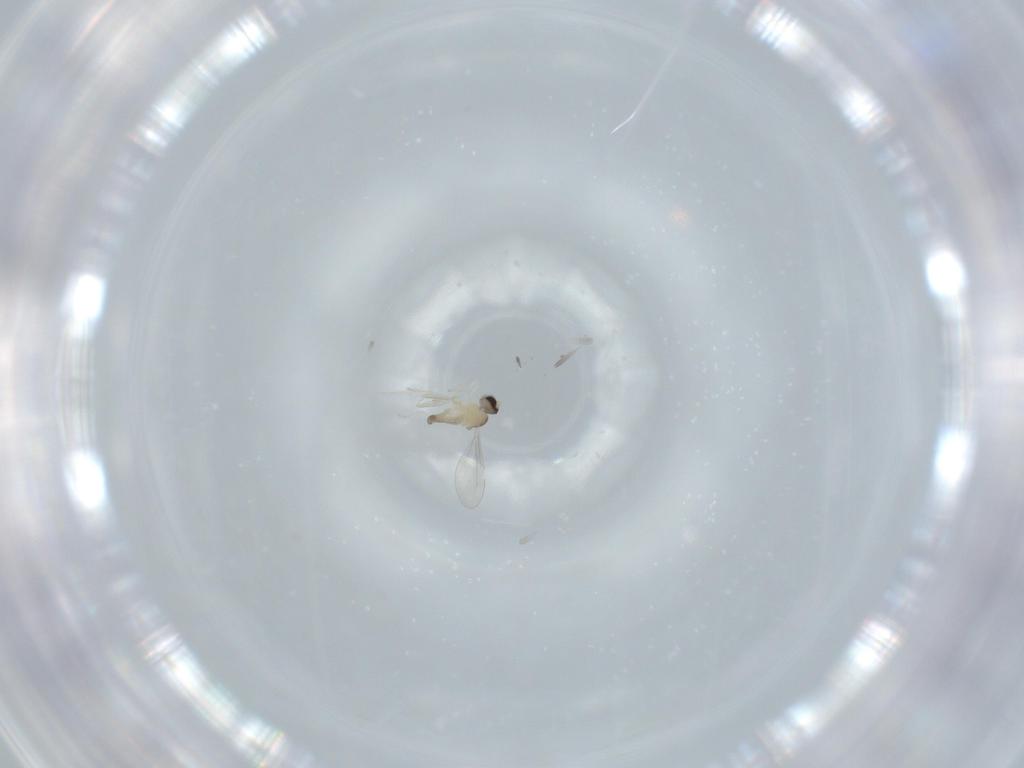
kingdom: Animalia
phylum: Arthropoda
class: Insecta
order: Diptera
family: Cecidomyiidae
